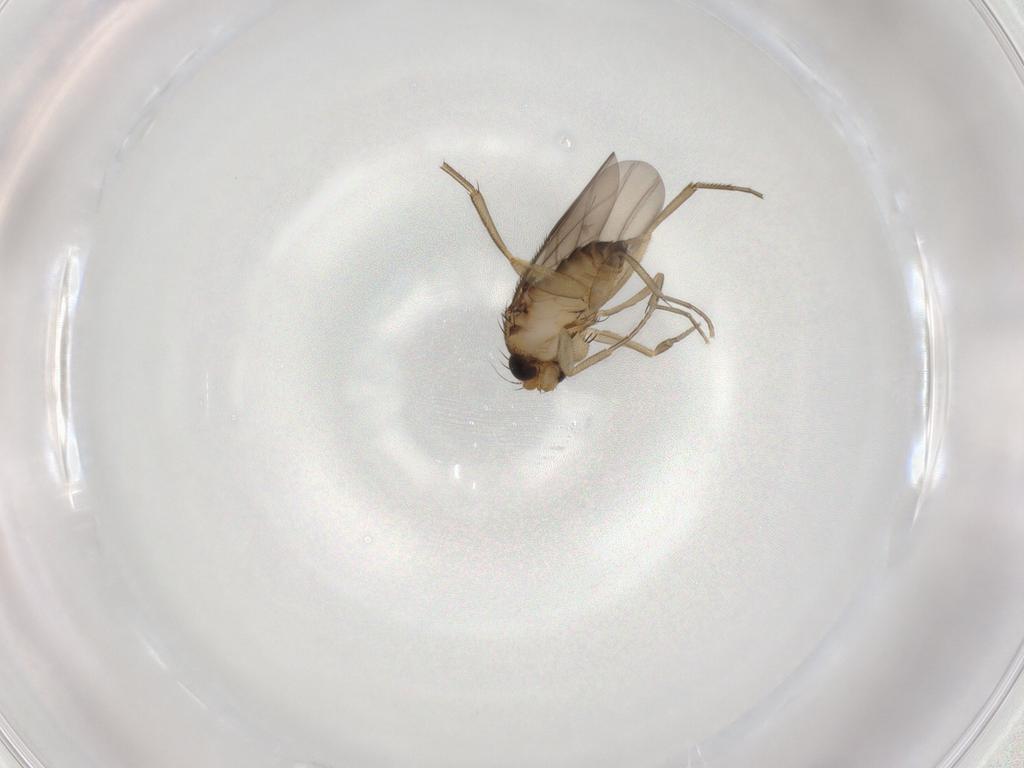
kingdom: Animalia
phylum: Arthropoda
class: Insecta
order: Diptera
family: Phoridae
